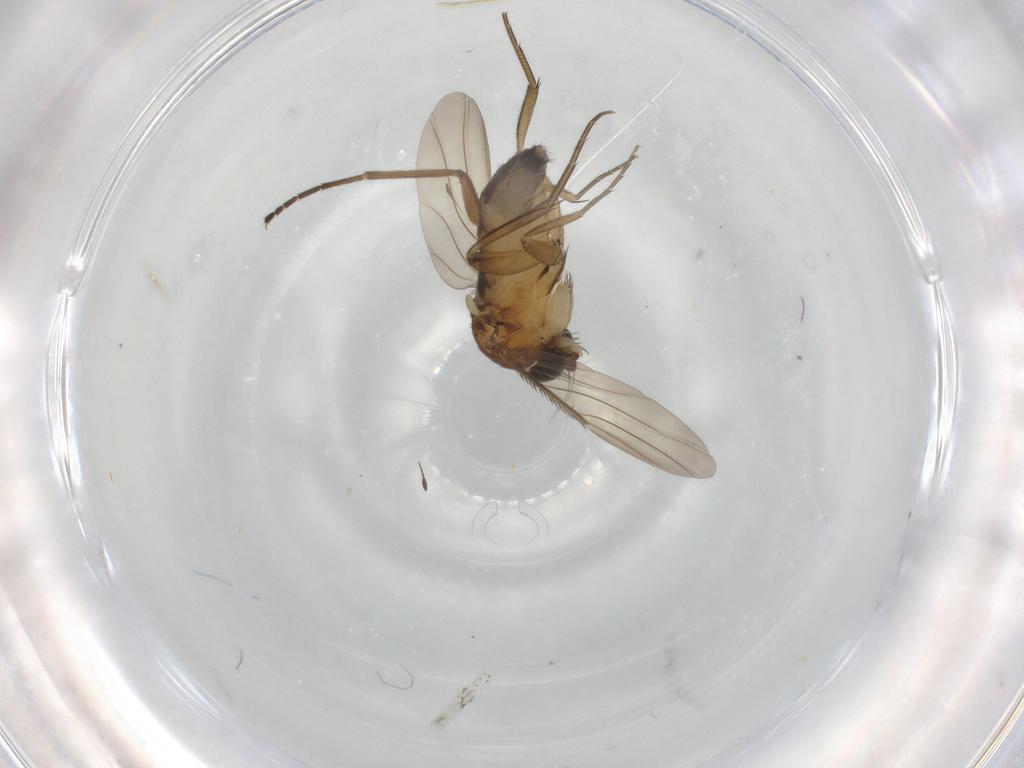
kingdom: Animalia
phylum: Arthropoda
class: Insecta
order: Diptera
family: Phoridae
